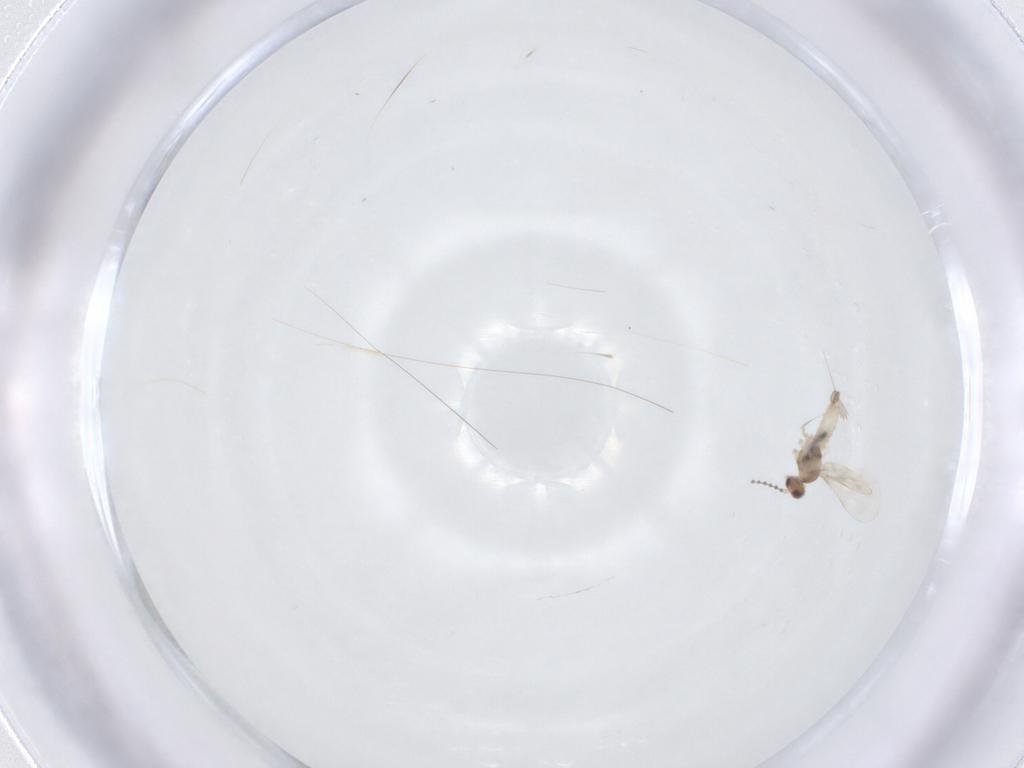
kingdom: Animalia
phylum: Arthropoda
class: Insecta
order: Diptera
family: Cecidomyiidae
